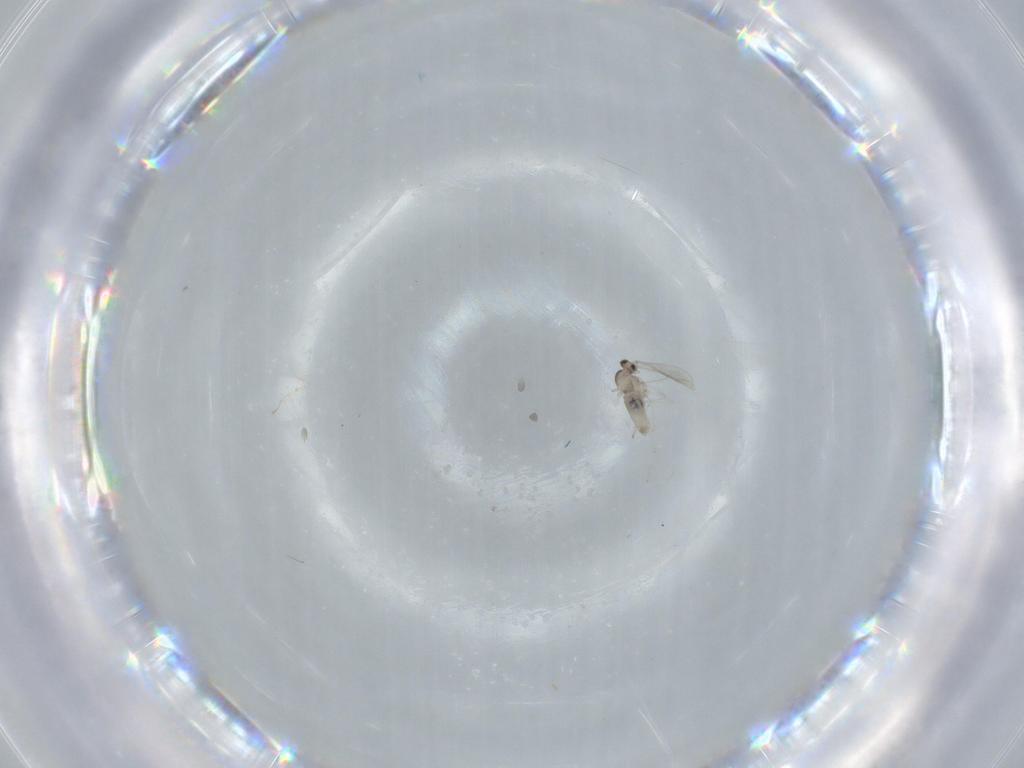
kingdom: Animalia
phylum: Arthropoda
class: Insecta
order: Diptera
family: Cecidomyiidae
